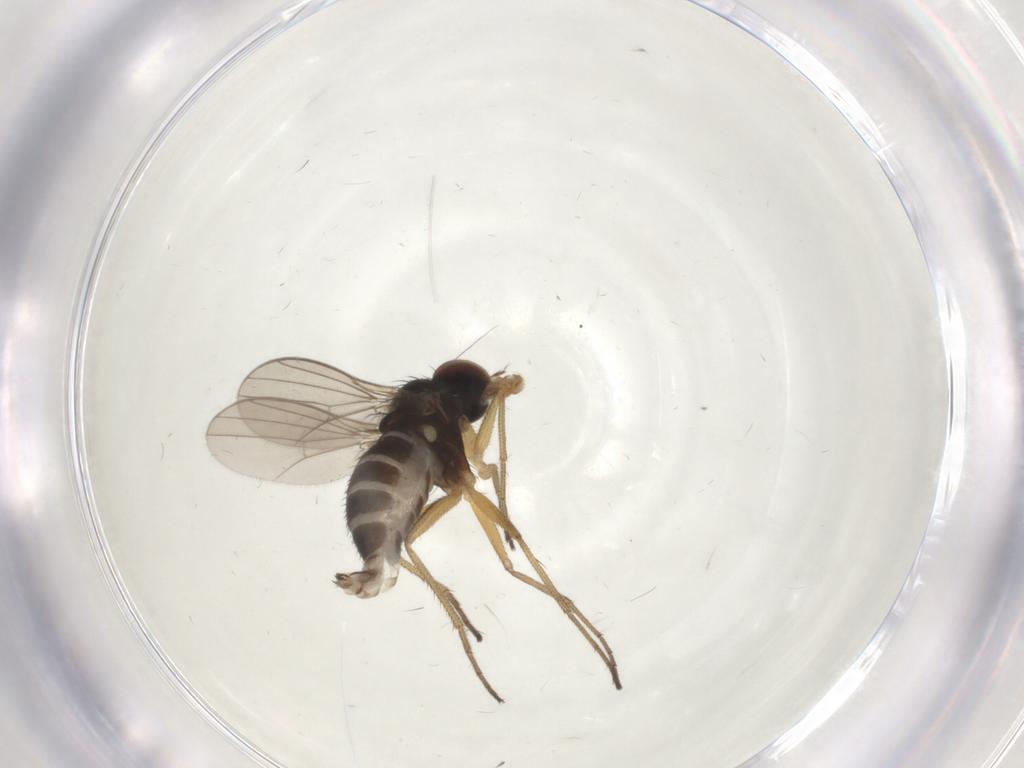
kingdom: Animalia
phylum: Arthropoda
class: Insecta
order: Diptera
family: Dolichopodidae
